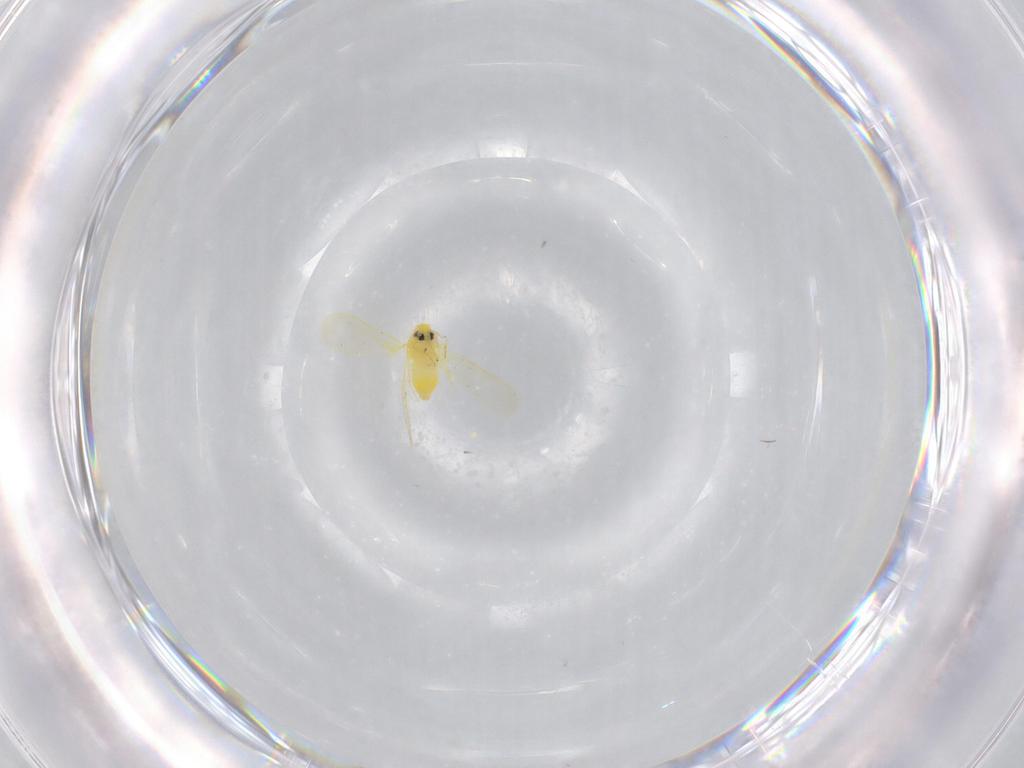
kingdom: Animalia
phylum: Arthropoda
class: Insecta
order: Hemiptera
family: Aleyrodidae
